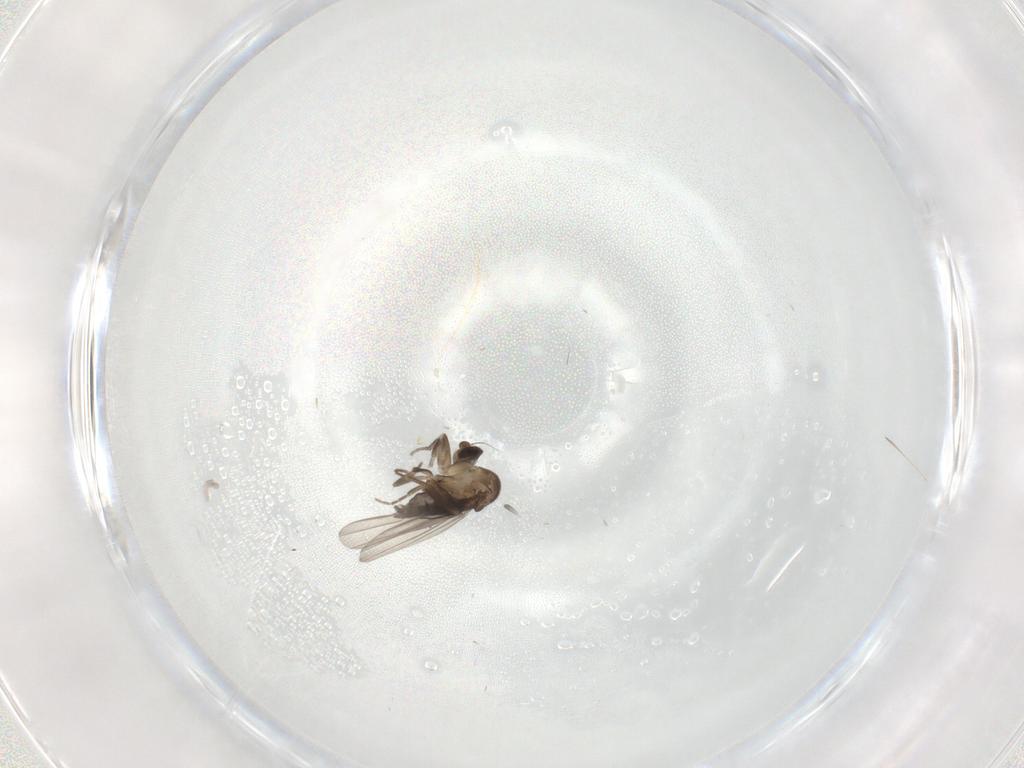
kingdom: Animalia
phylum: Arthropoda
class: Insecta
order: Diptera
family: Phoridae
